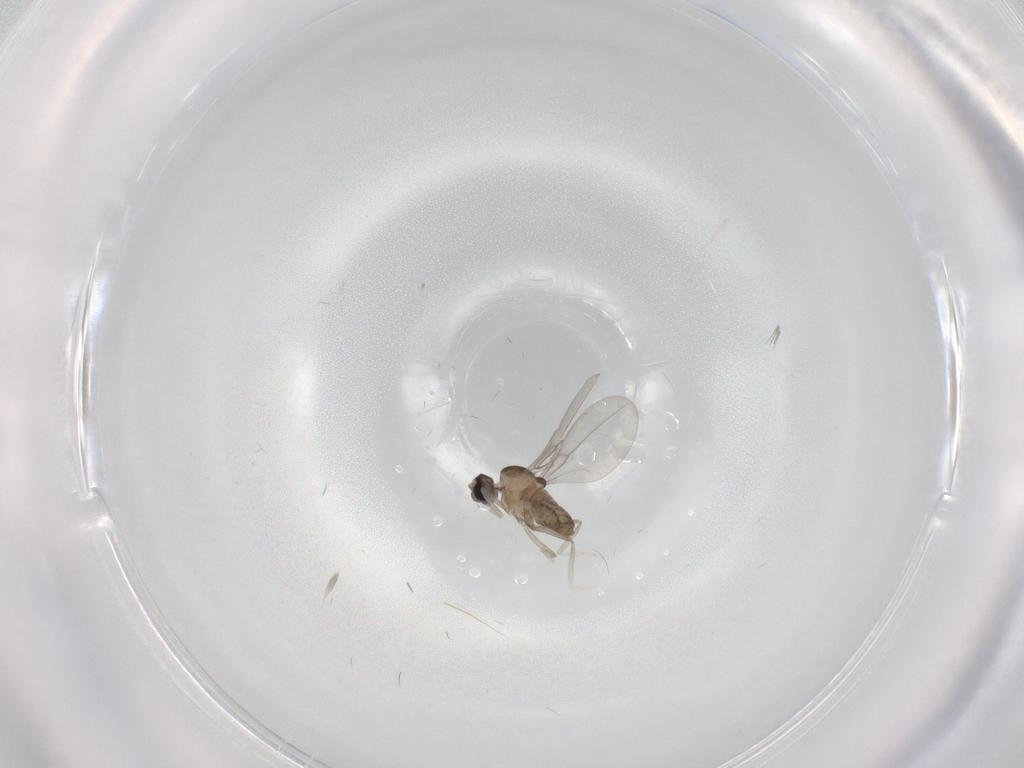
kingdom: Animalia
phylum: Arthropoda
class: Insecta
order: Diptera
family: Cecidomyiidae
